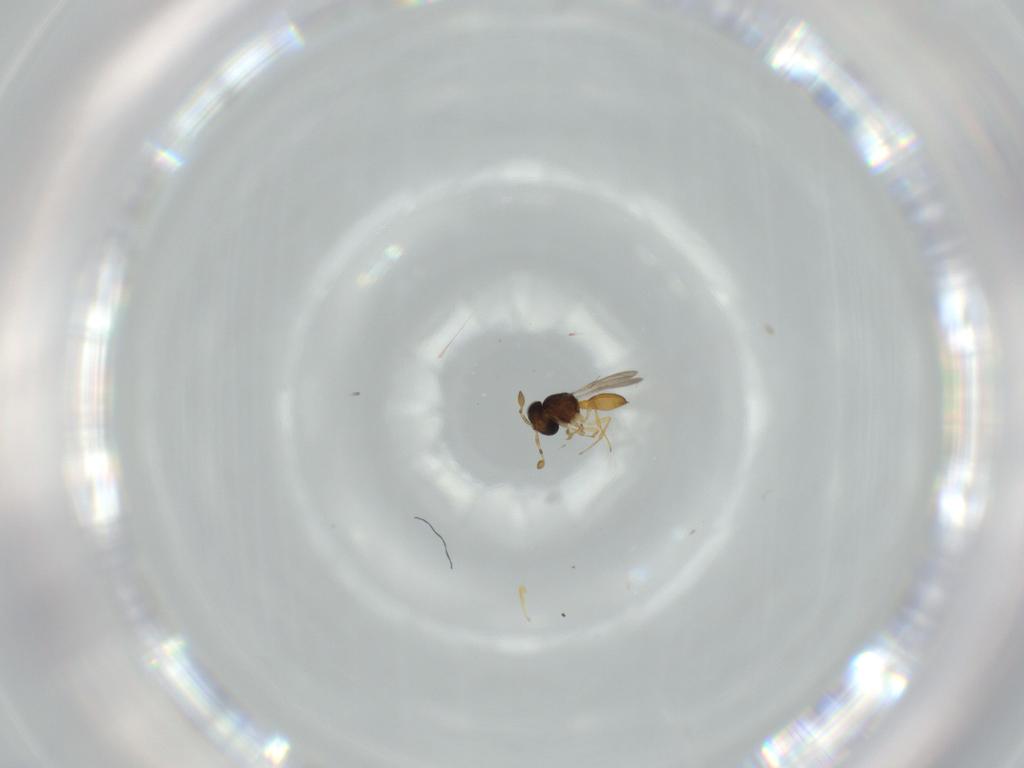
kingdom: Animalia
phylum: Arthropoda
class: Insecta
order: Hymenoptera
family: Scelionidae
